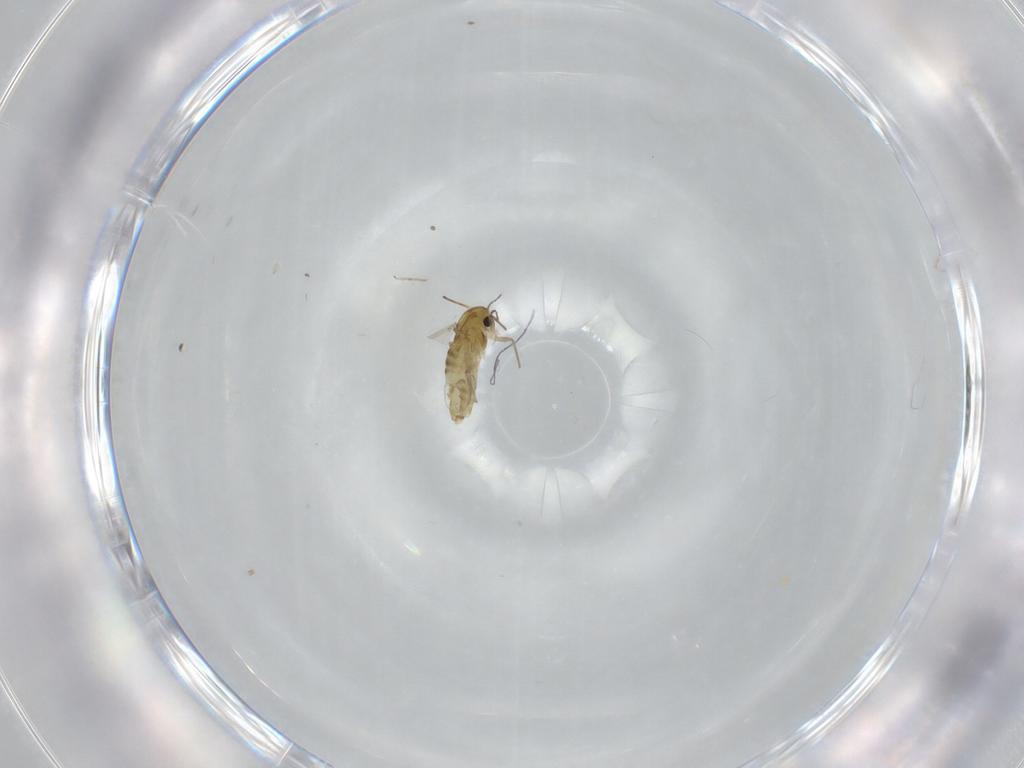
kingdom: Animalia
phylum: Arthropoda
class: Insecta
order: Diptera
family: Chironomidae
